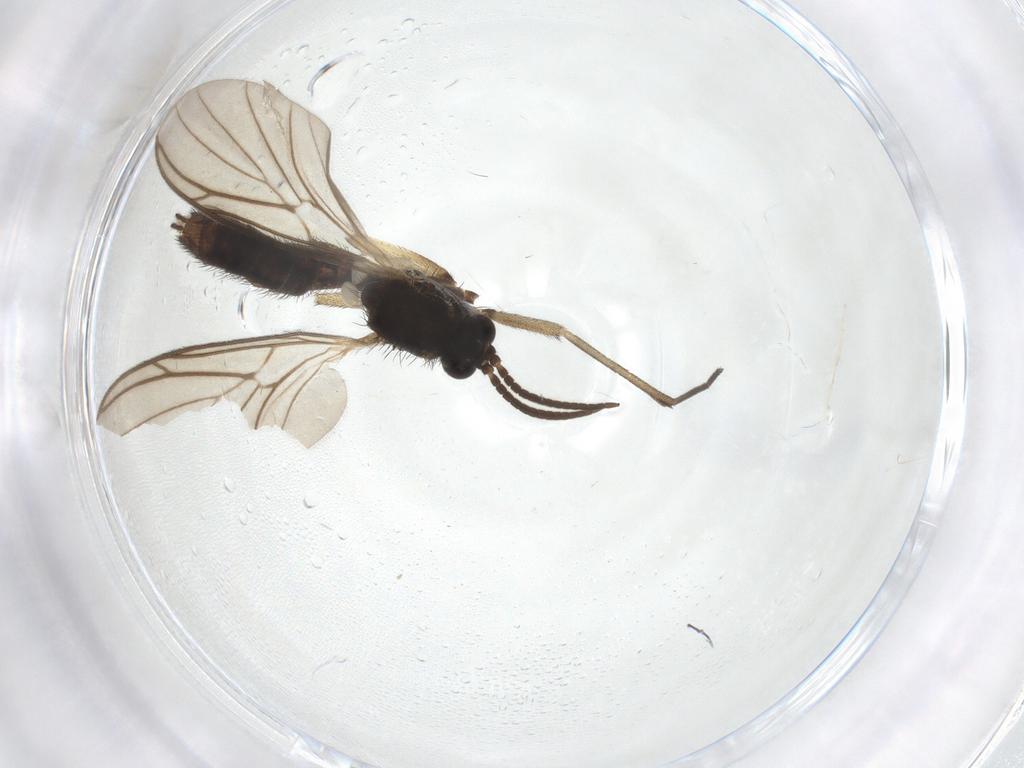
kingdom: Animalia
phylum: Arthropoda
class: Insecta
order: Diptera
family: Keroplatidae
